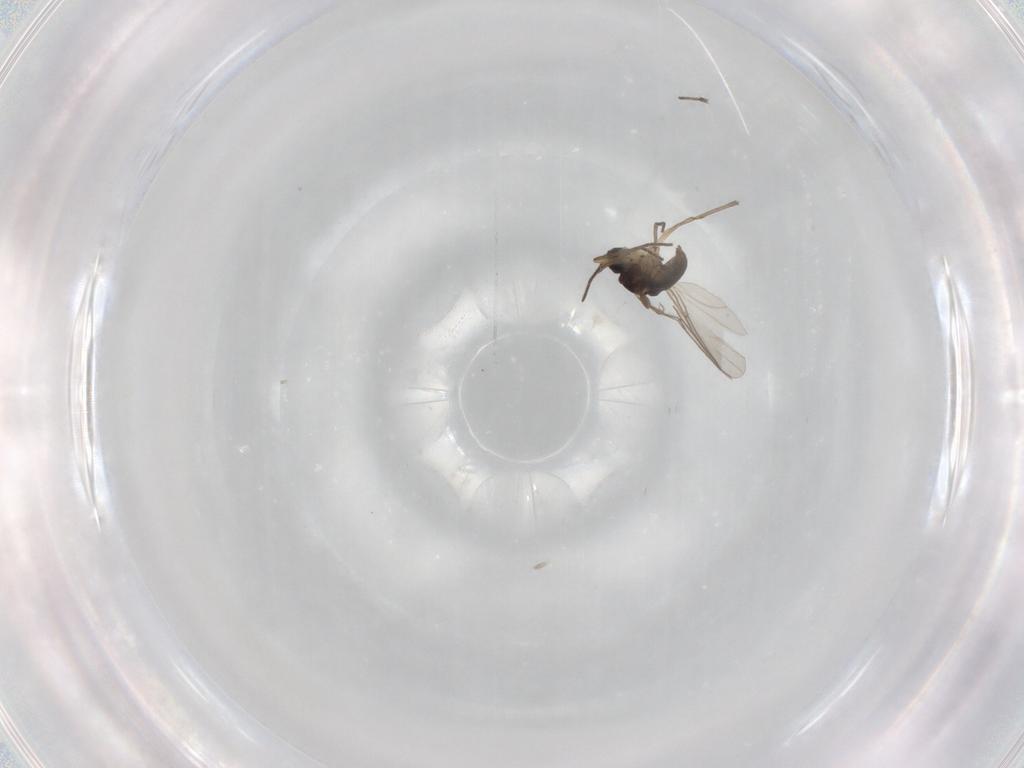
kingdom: Animalia
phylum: Arthropoda
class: Insecta
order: Diptera
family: Ceratopogonidae
